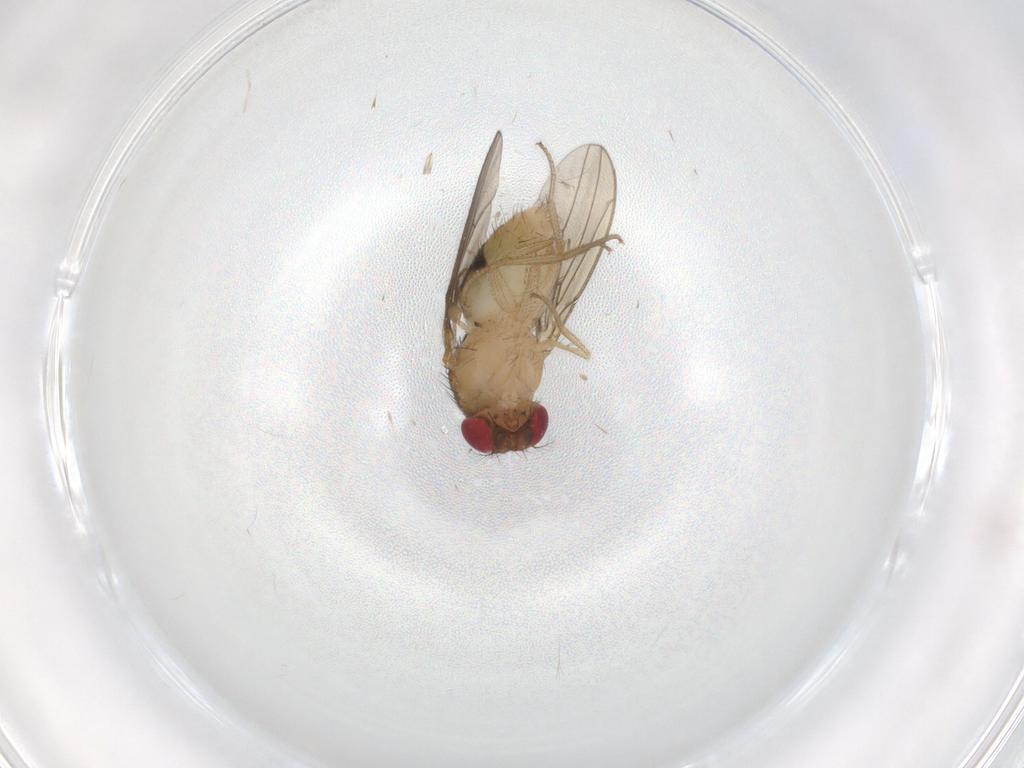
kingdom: Animalia
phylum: Arthropoda
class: Insecta
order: Diptera
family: Drosophilidae
